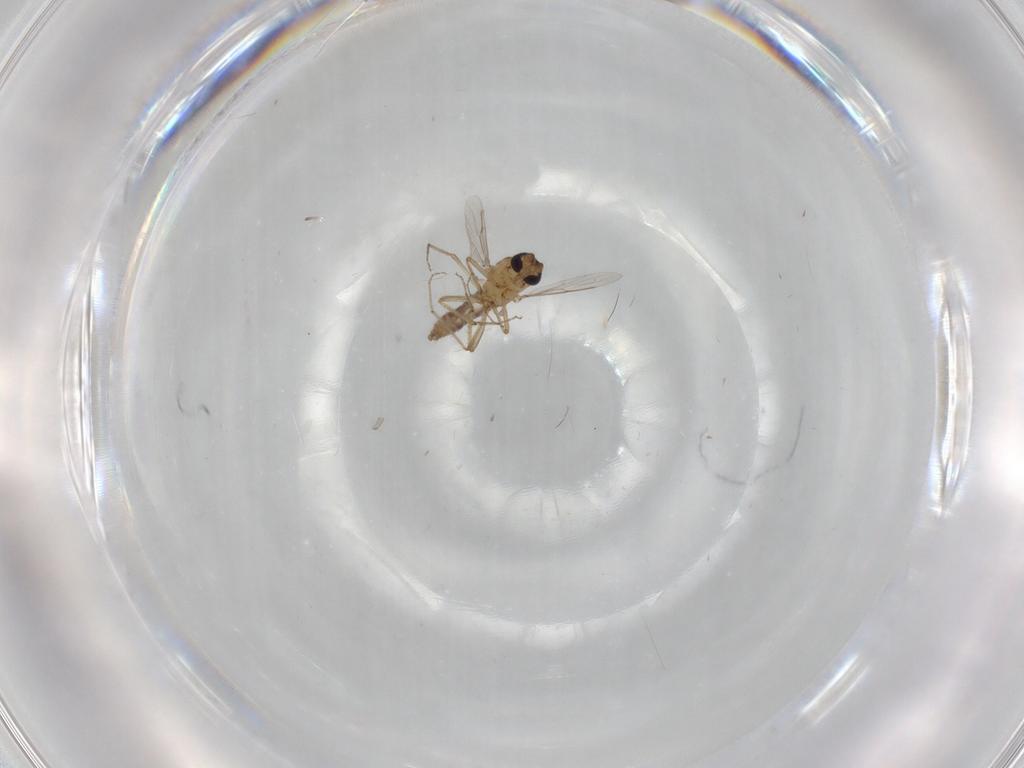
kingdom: Animalia
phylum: Arthropoda
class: Insecta
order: Diptera
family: Ceratopogonidae
